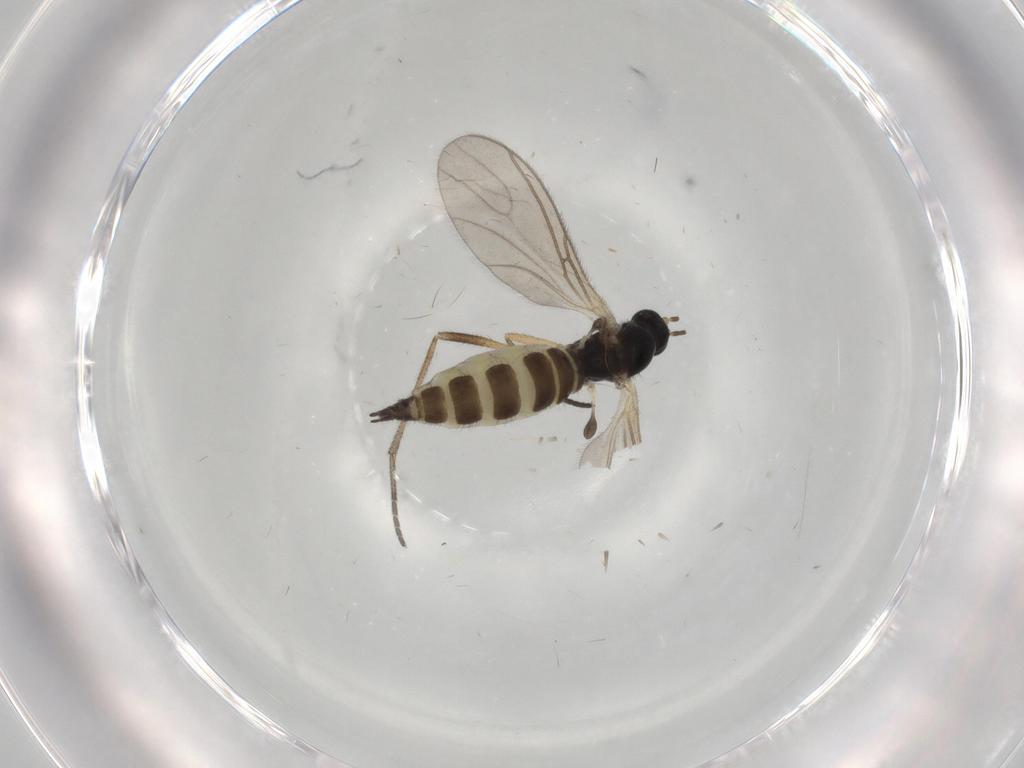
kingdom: Animalia
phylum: Arthropoda
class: Insecta
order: Diptera
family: Sciaridae
